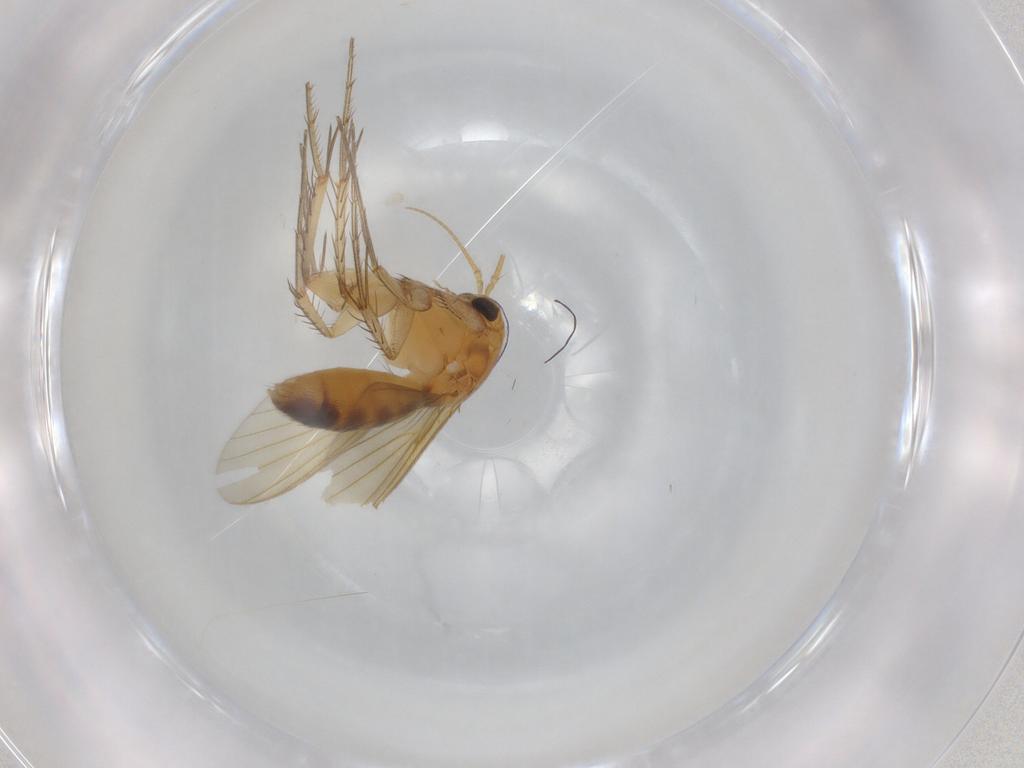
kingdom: Animalia
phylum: Arthropoda
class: Insecta
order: Diptera
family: Mycetophilidae
